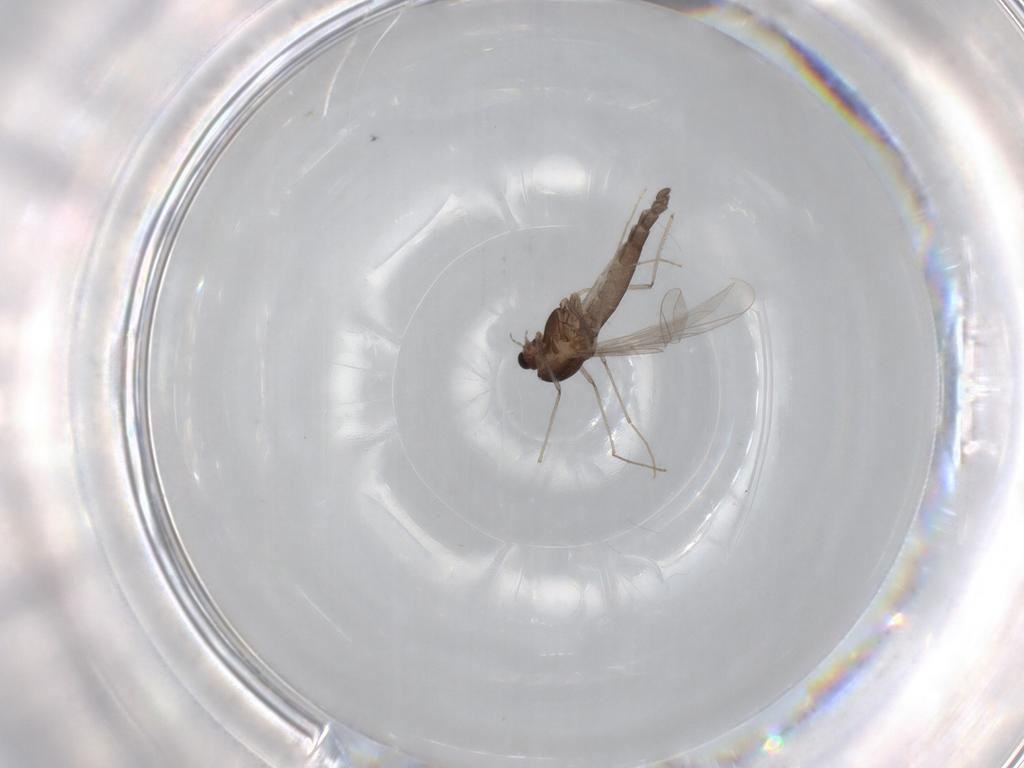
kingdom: Animalia
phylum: Arthropoda
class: Insecta
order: Diptera
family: Chironomidae
